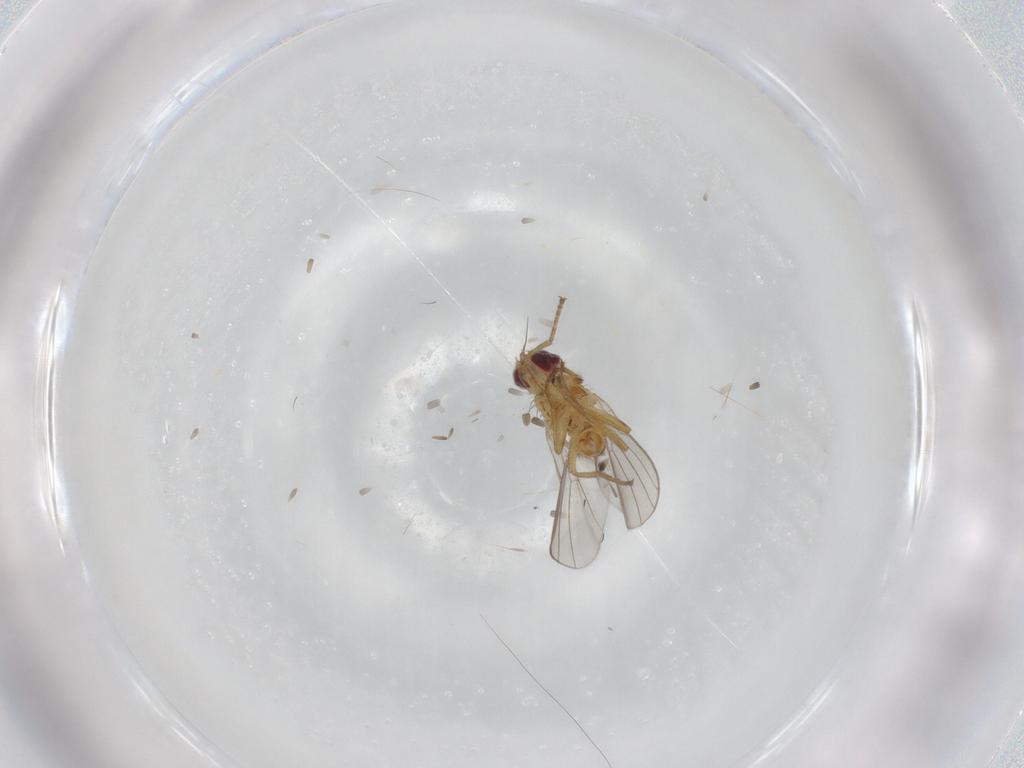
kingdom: Animalia
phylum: Arthropoda
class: Insecta
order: Diptera
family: Agromyzidae
